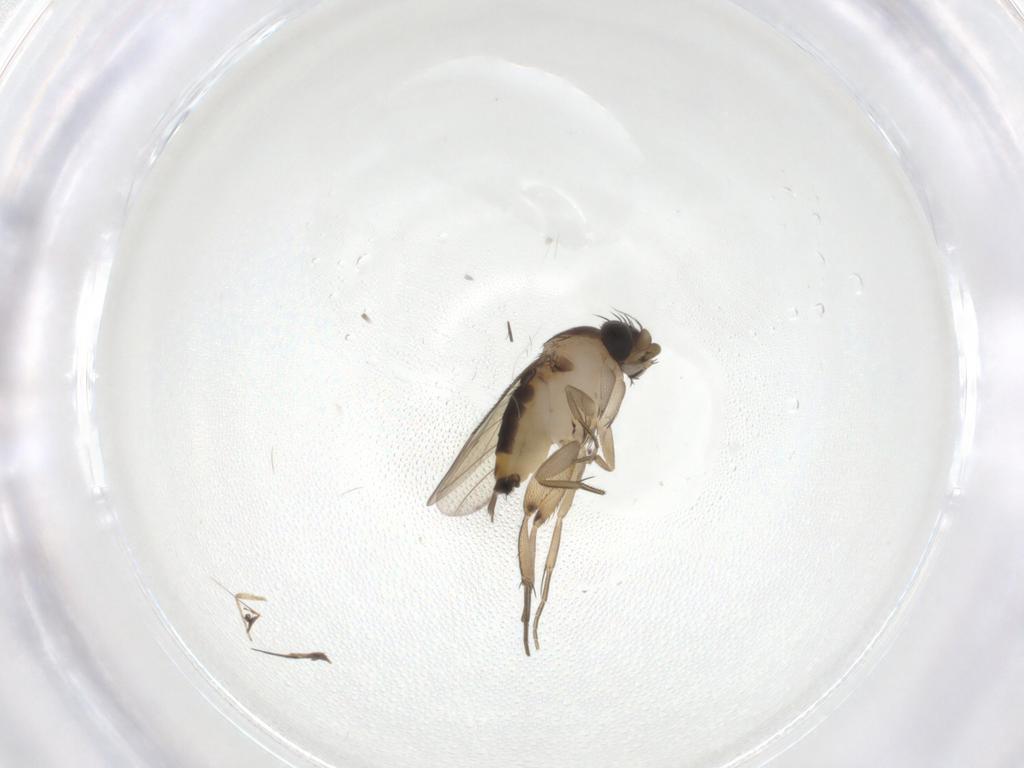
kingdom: Animalia
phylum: Arthropoda
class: Insecta
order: Diptera
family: Phoridae
